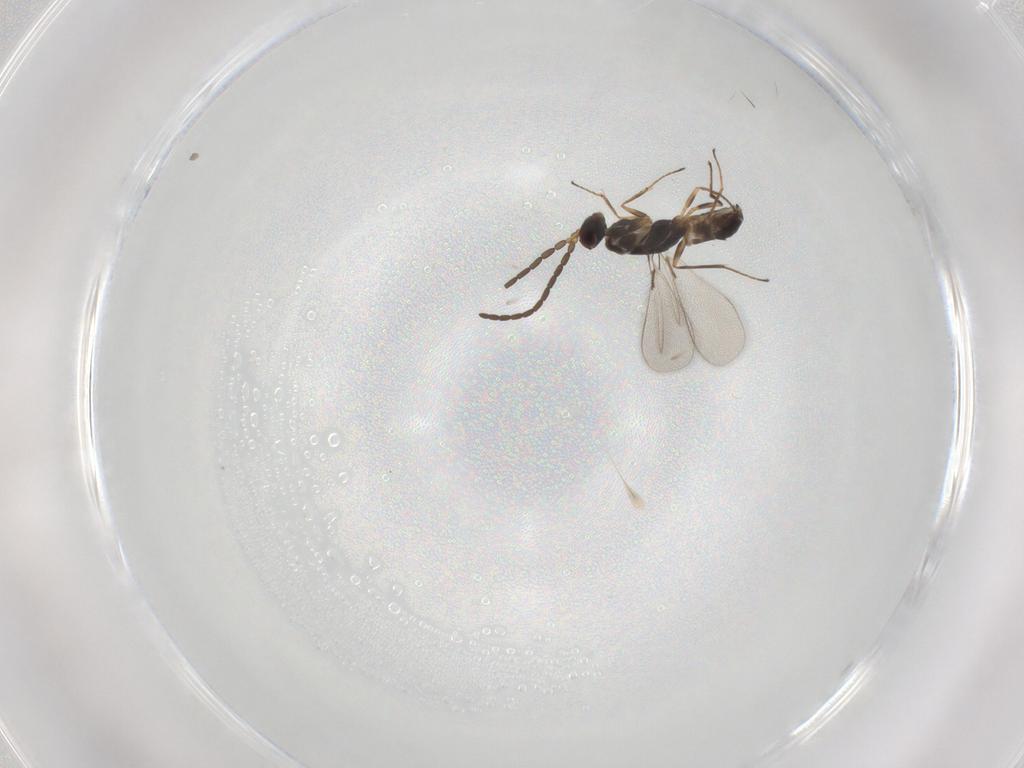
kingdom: Animalia
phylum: Arthropoda
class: Insecta
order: Hymenoptera
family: Mymaridae
